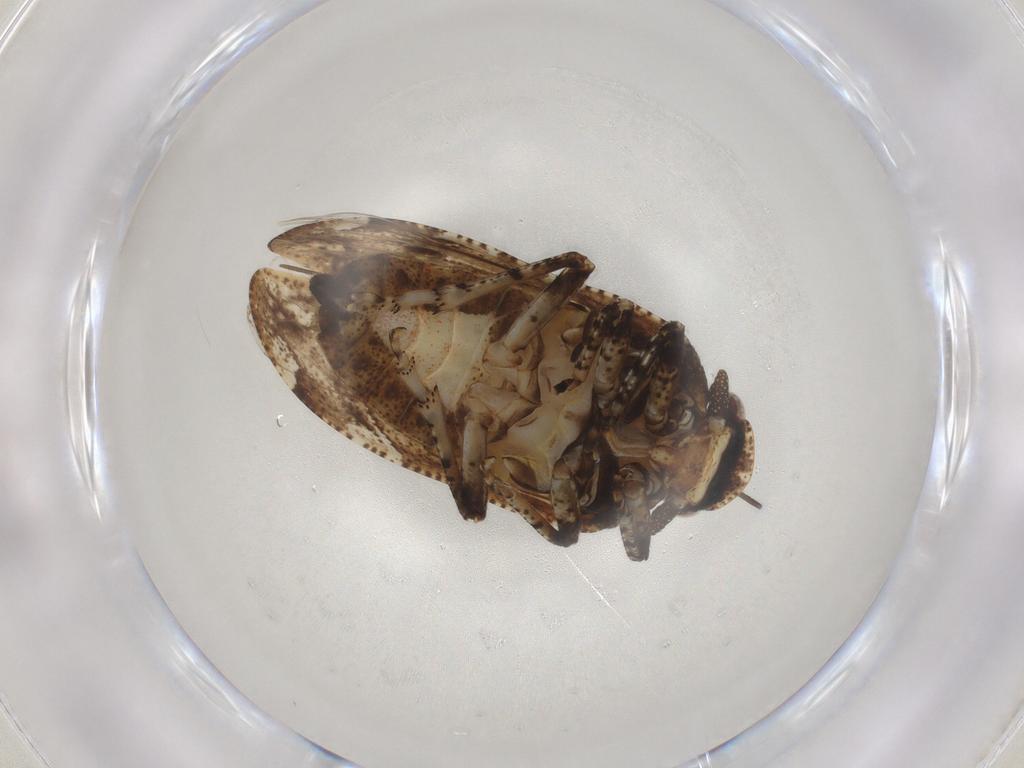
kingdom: Animalia
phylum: Arthropoda
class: Insecta
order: Hemiptera
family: Tettigometridae
